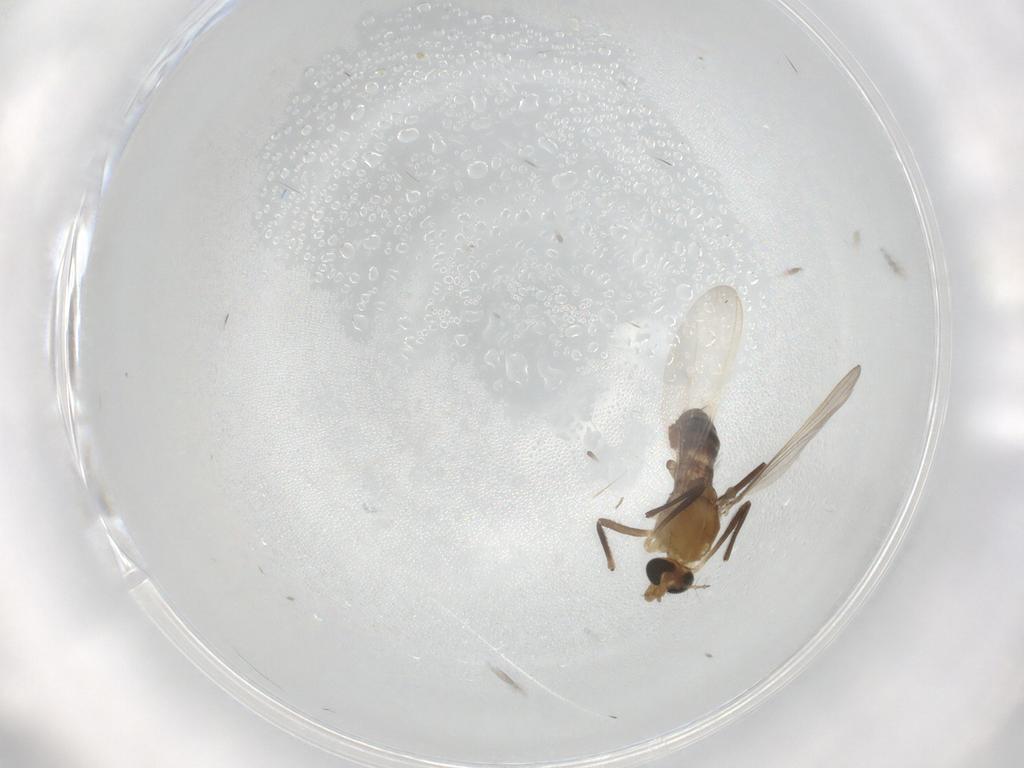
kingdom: Animalia
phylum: Arthropoda
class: Insecta
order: Diptera
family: Chironomidae
